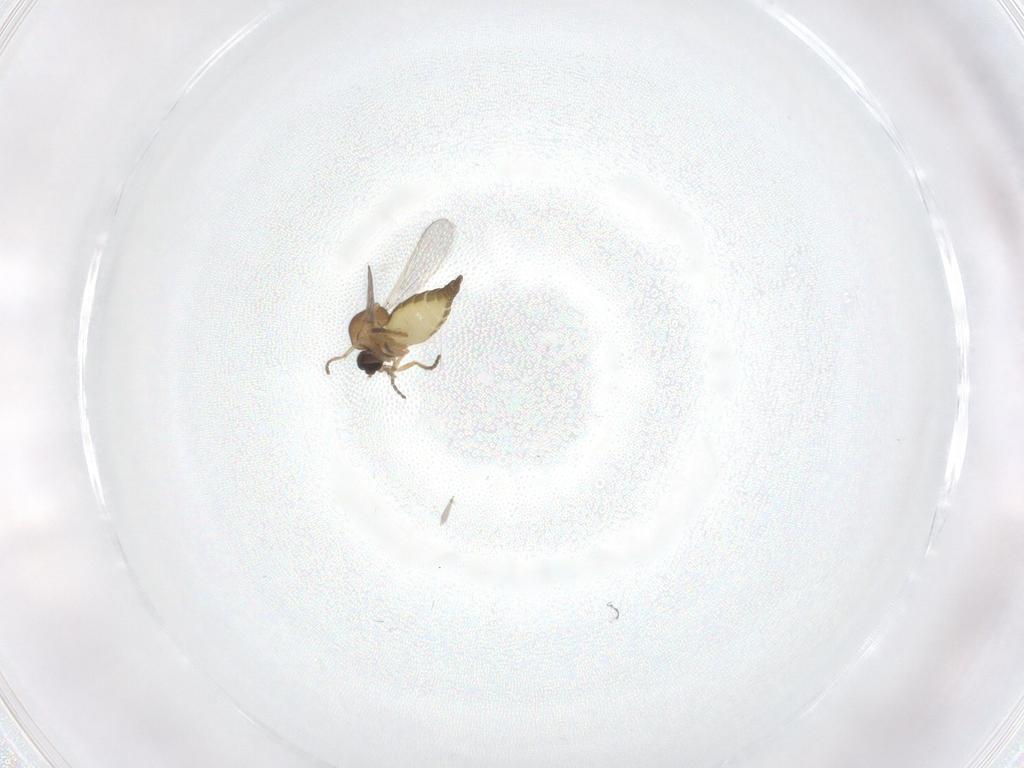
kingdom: Animalia
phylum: Arthropoda
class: Insecta
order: Diptera
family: Ceratopogonidae
